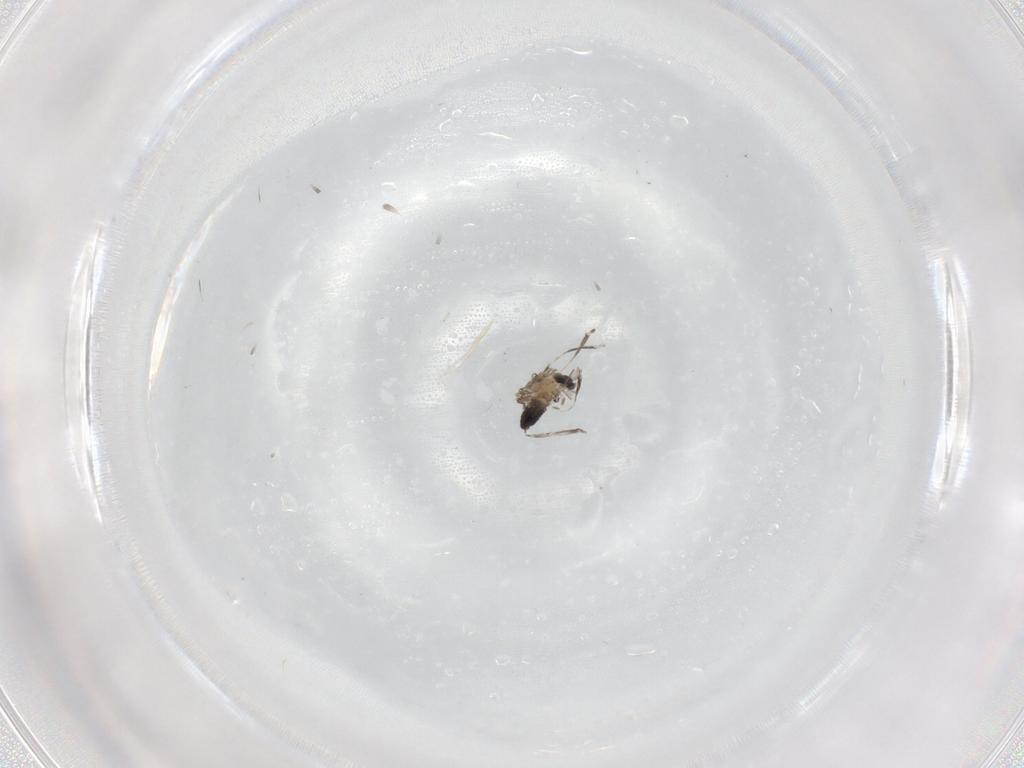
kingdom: Animalia
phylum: Arthropoda
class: Insecta
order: Diptera
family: Cecidomyiidae
